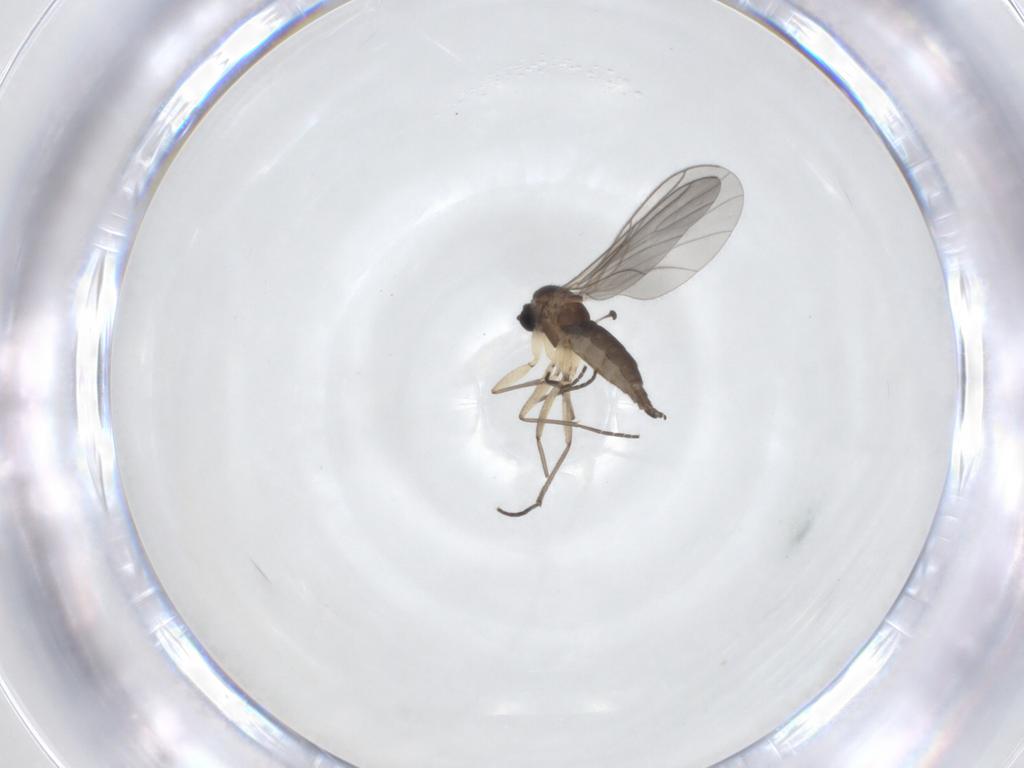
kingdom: Animalia
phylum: Arthropoda
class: Insecta
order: Diptera
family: Sciaridae
